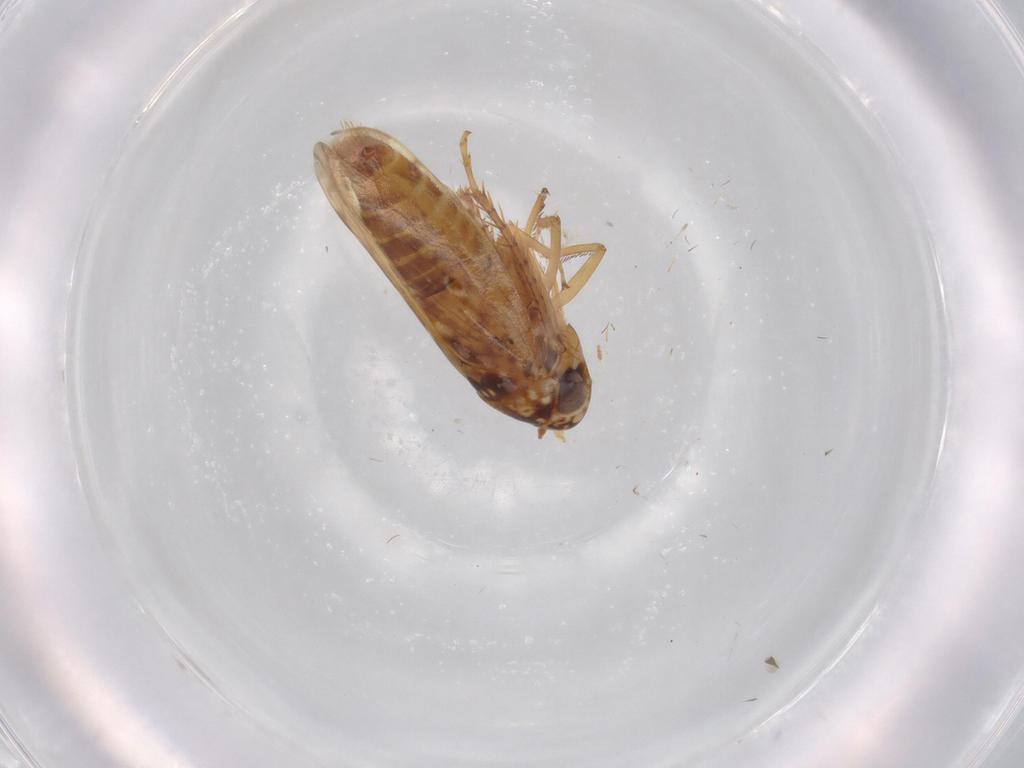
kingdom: Animalia
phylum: Arthropoda
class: Insecta
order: Hemiptera
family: Cicadellidae
